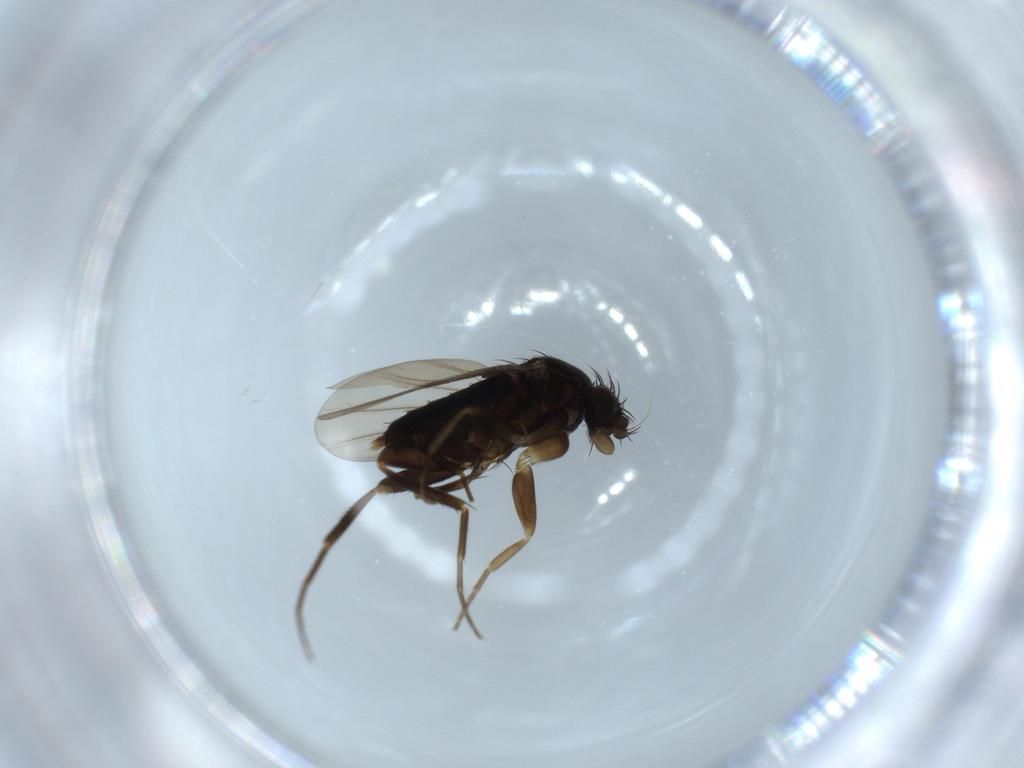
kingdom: Animalia
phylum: Arthropoda
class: Insecta
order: Diptera
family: Phoridae
